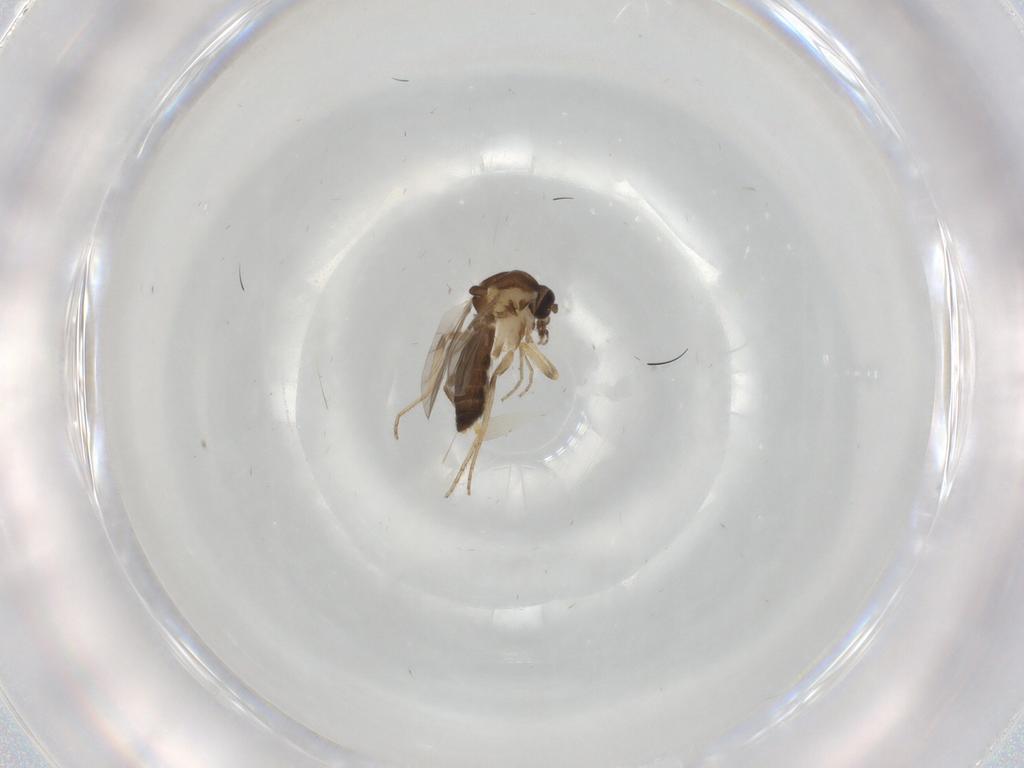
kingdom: Animalia
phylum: Arthropoda
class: Insecta
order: Diptera
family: Ceratopogonidae
